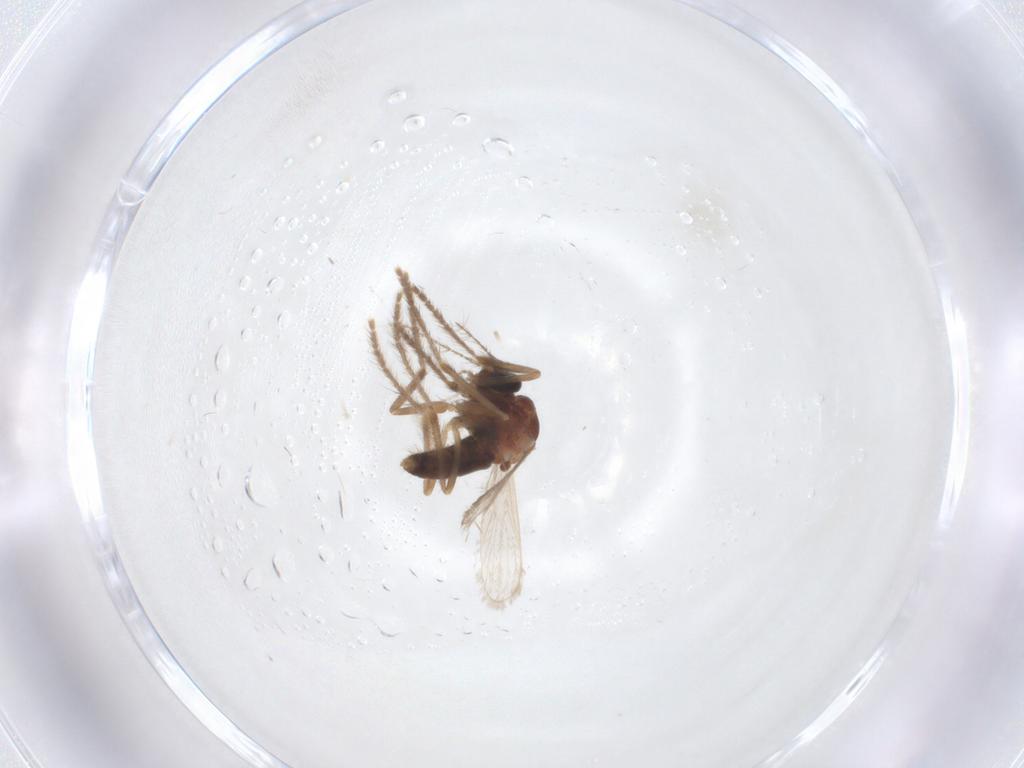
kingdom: Animalia
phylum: Arthropoda
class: Insecta
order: Diptera
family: Corethrellidae
